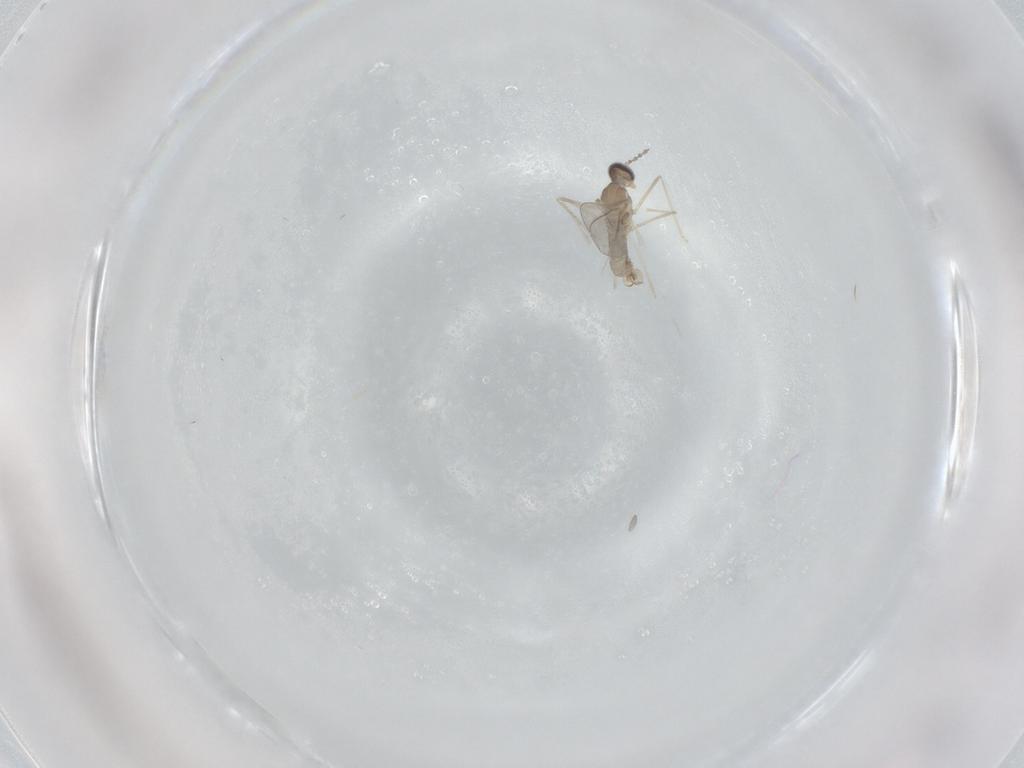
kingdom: Animalia
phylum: Arthropoda
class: Insecta
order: Diptera
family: Cecidomyiidae
